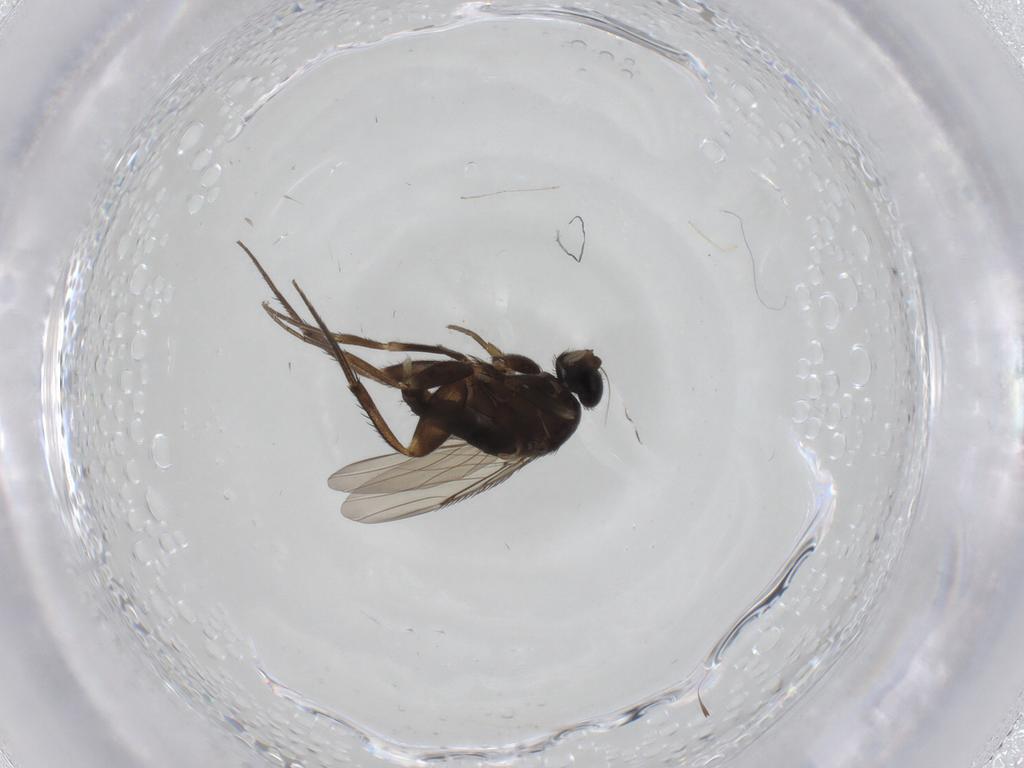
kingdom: Animalia
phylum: Arthropoda
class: Insecta
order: Diptera
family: Phoridae
